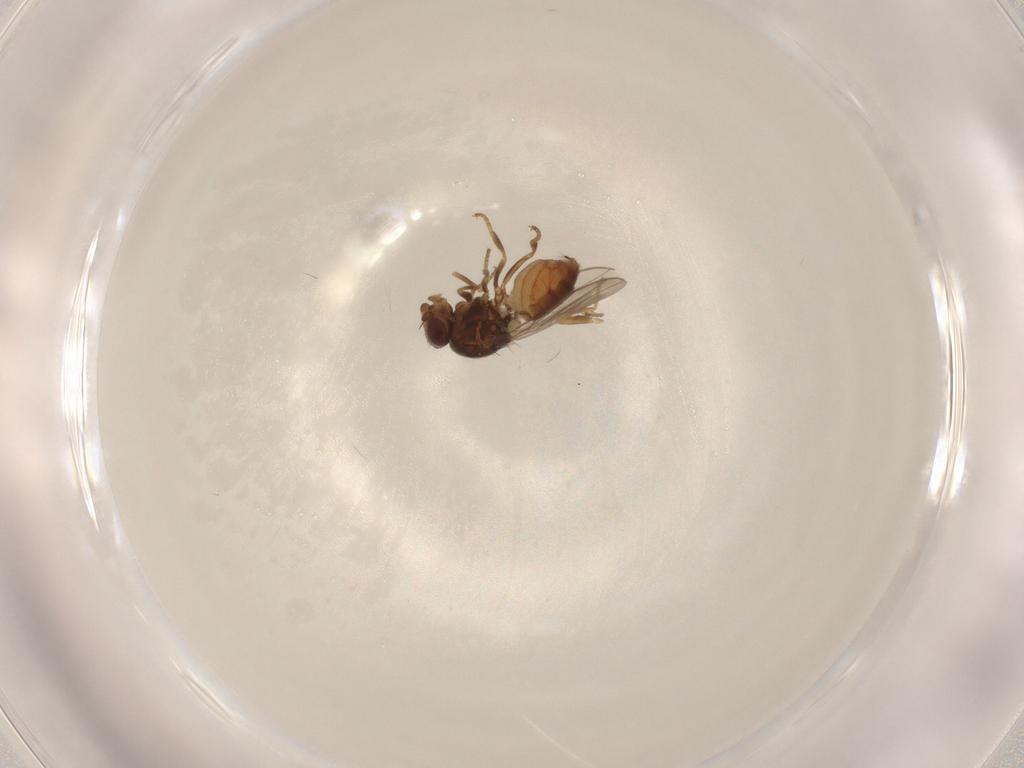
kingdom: Animalia
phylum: Arthropoda
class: Insecta
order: Diptera
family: Chloropidae
